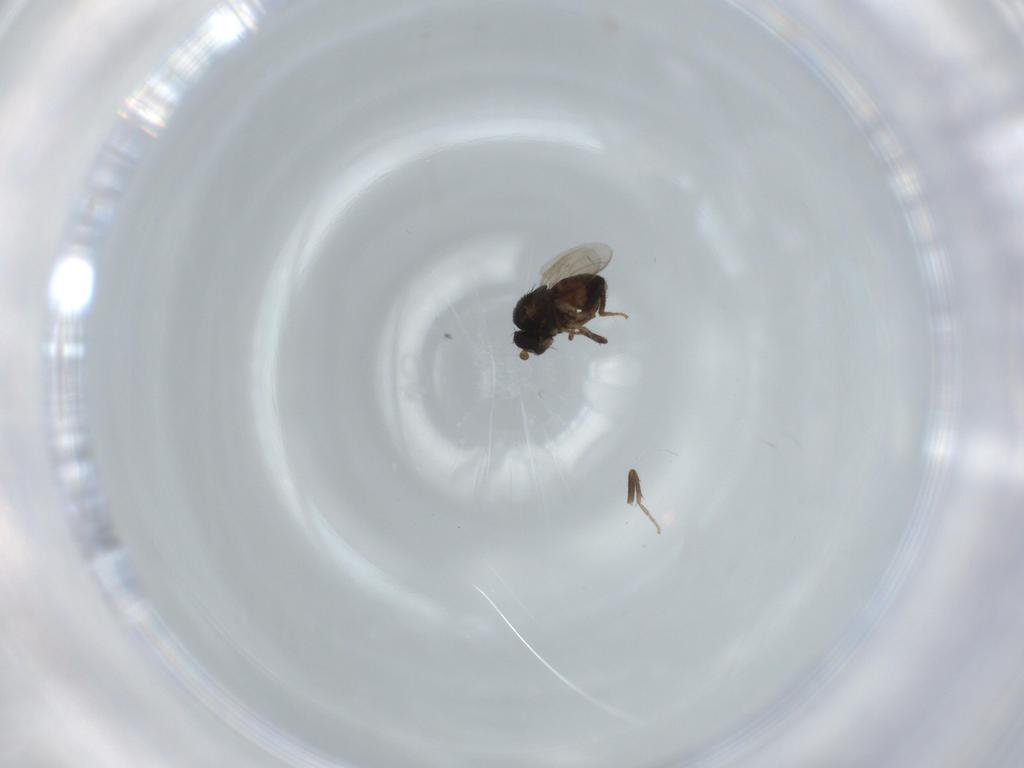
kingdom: Animalia
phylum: Arthropoda
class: Insecta
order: Diptera
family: Sphaeroceridae
